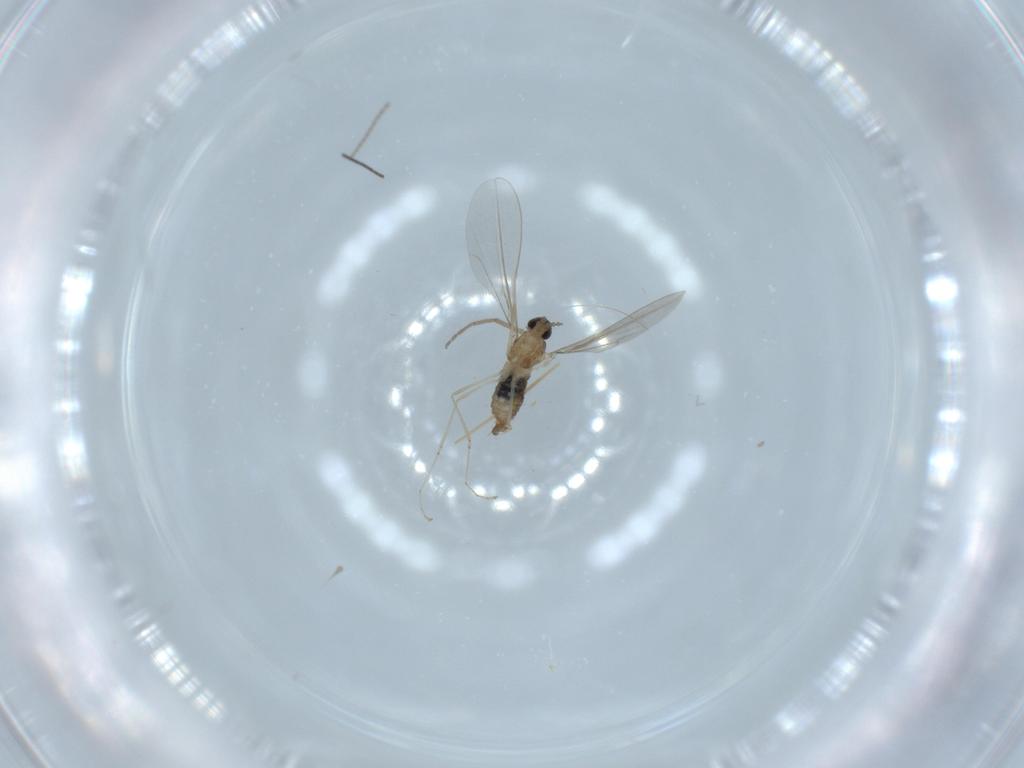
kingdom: Animalia
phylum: Arthropoda
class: Insecta
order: Diptera
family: Cecidomyiidae
